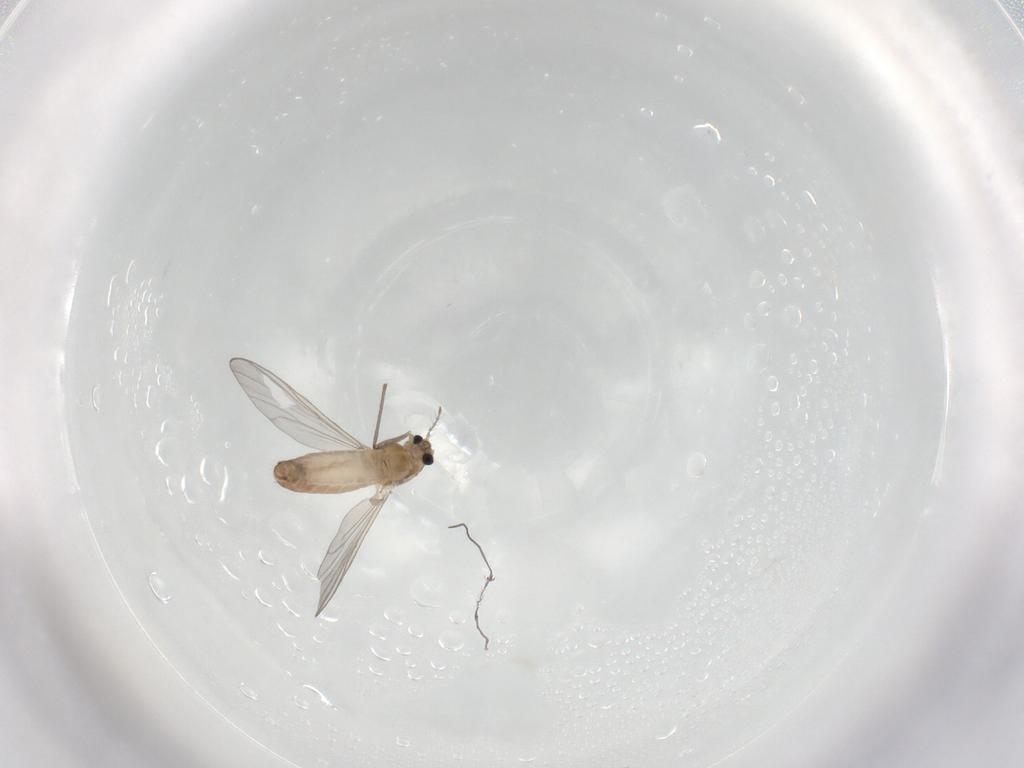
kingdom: Animalia
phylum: Arthropoda
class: Insecta
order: Diptera
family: Chironomidae
